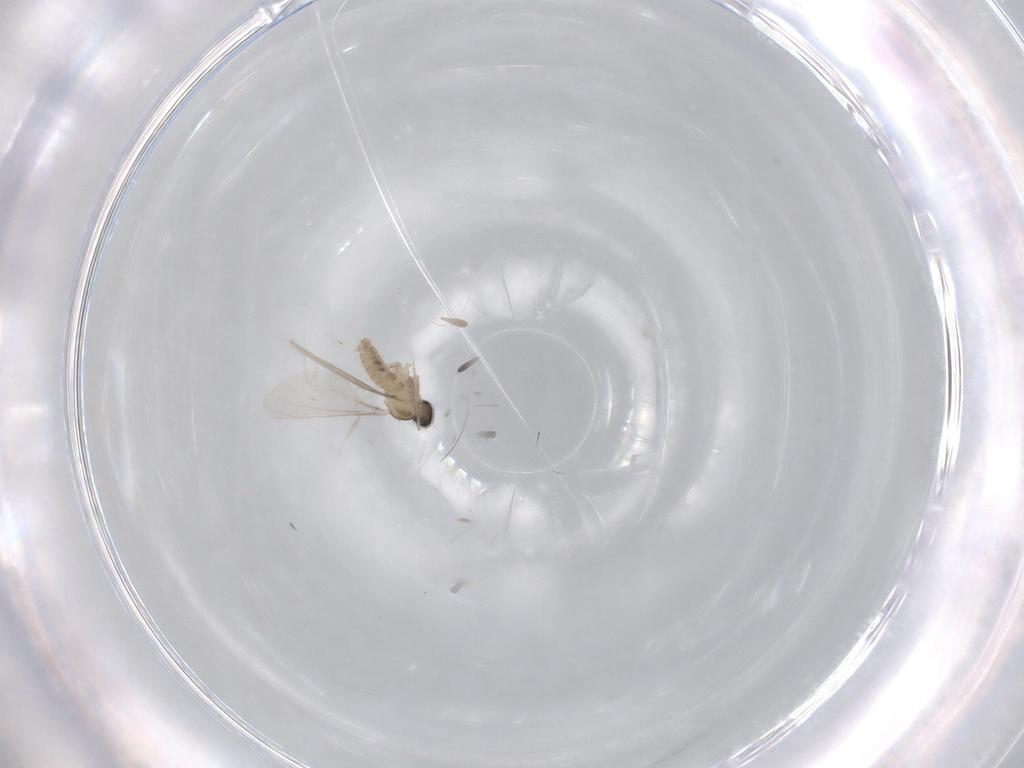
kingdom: Animalia
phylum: Arthropoda
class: Insecta
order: Diptera
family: Cecidomyiidae
